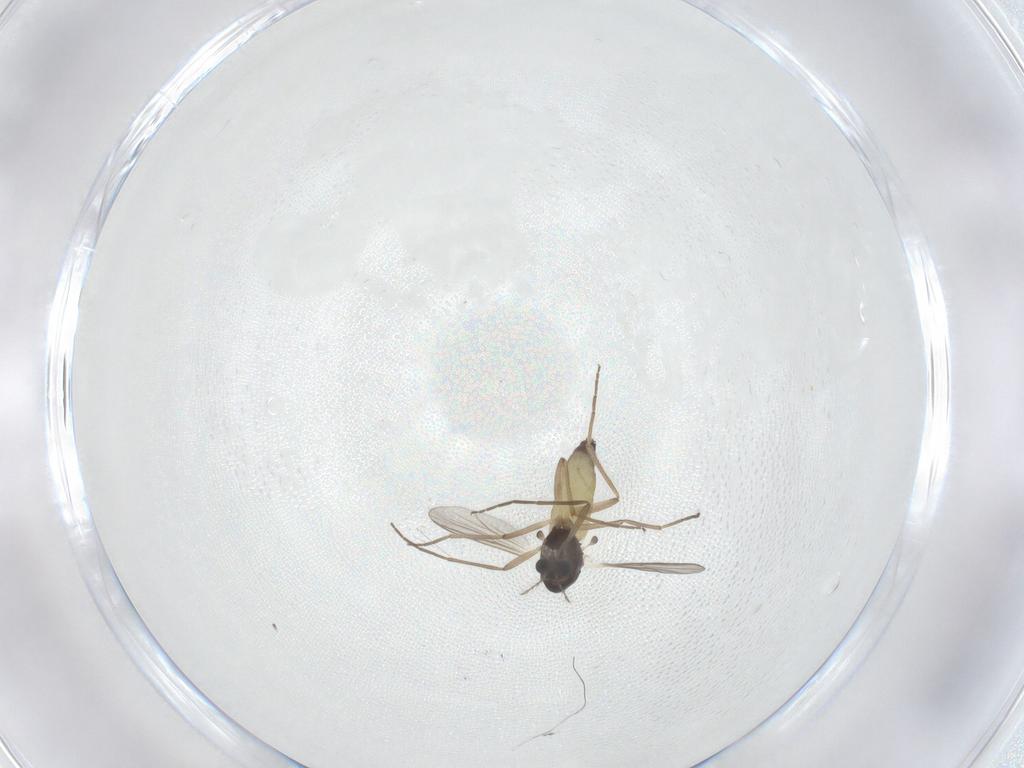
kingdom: Animalia
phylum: Arthropoda
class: Insecta
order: Diptera
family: Chironomidae
